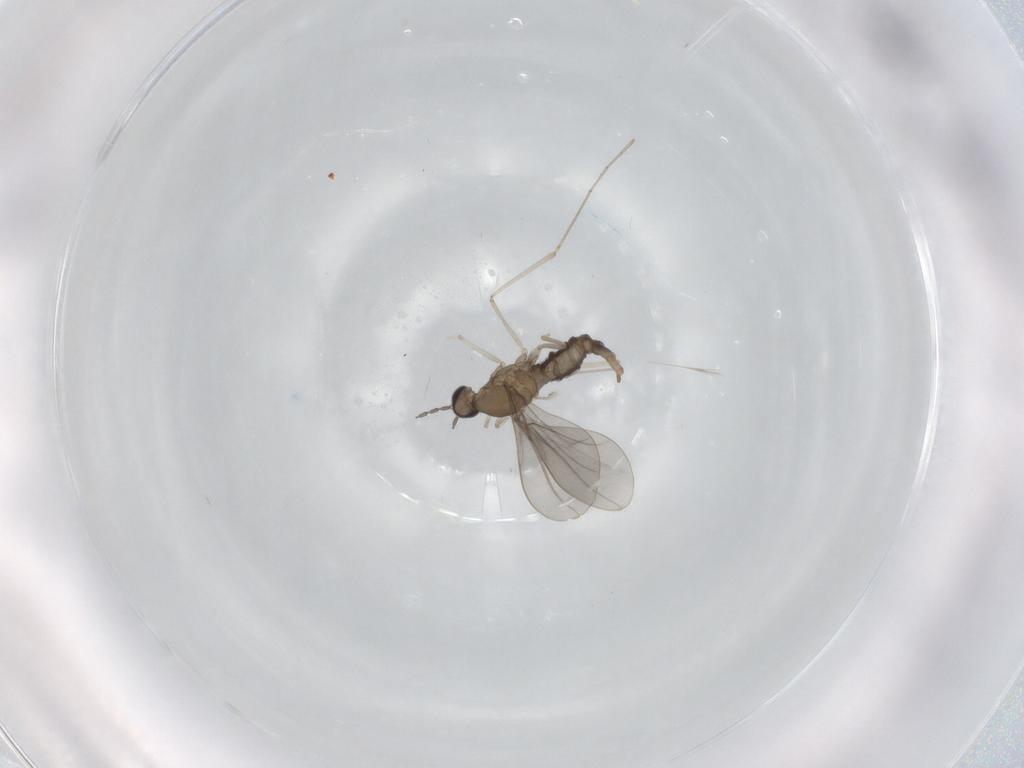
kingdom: Animalia
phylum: Arthropoda
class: Insecta
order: Diptera
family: Cecidomyiidae
